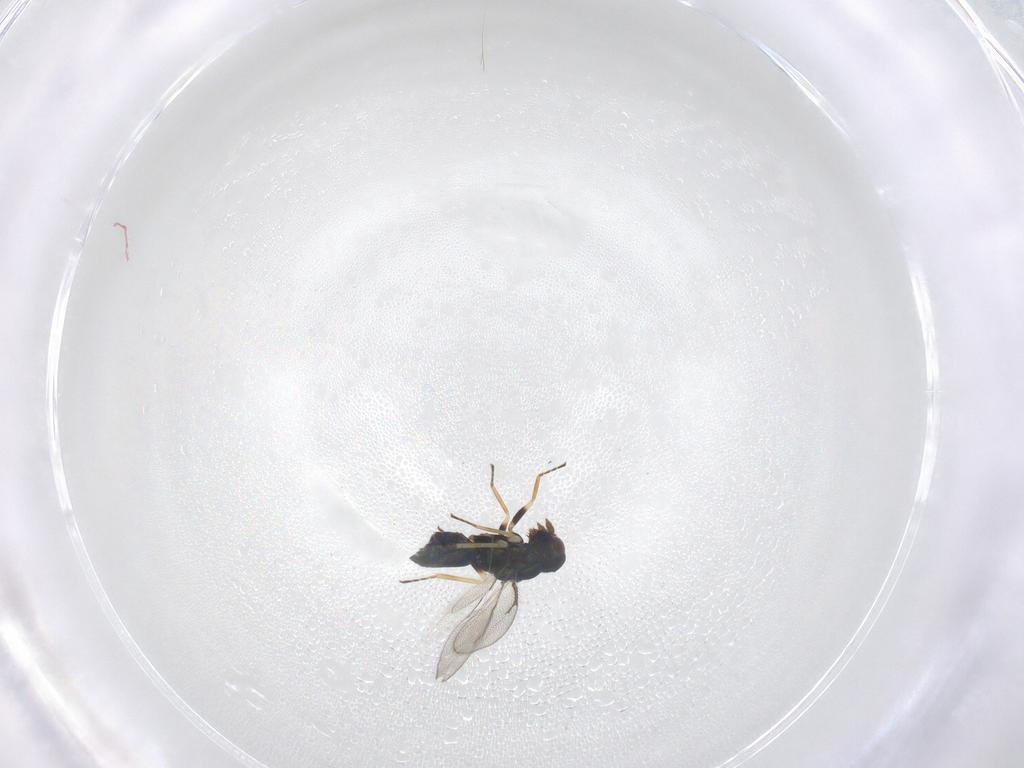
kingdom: Animalia
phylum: Arthropoda
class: Insecta
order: Hymenoptera
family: Eulophidae
